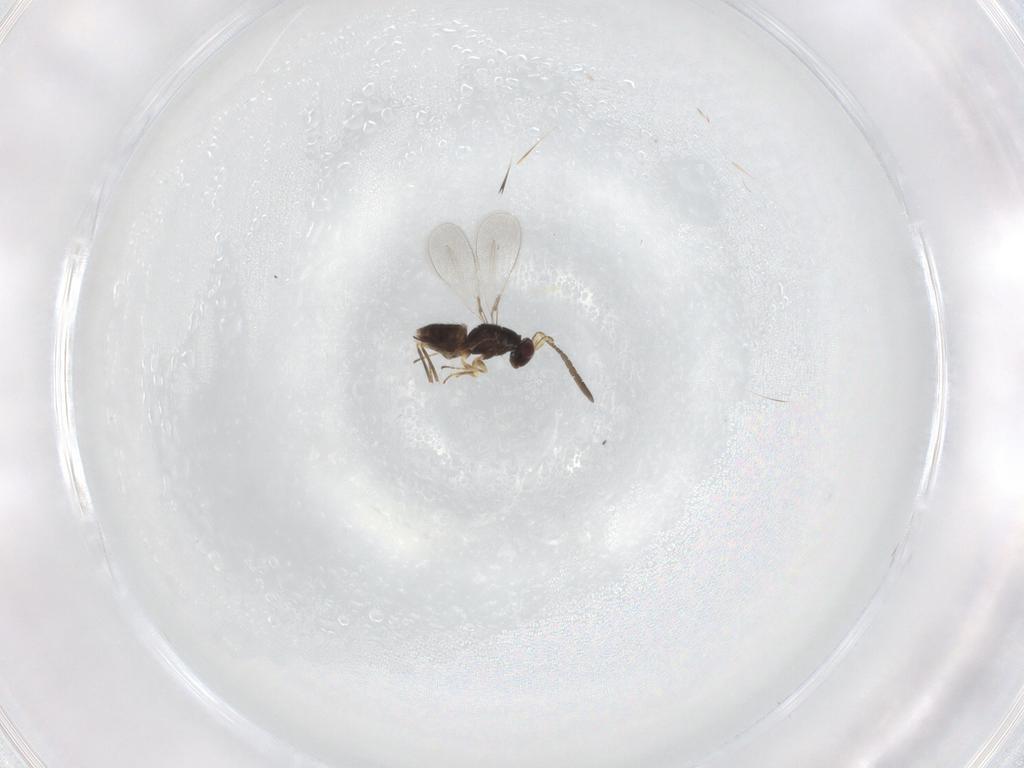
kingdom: Animalia
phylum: Arthropoda
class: Insecta
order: Hymenoptera
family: Mymaridae
